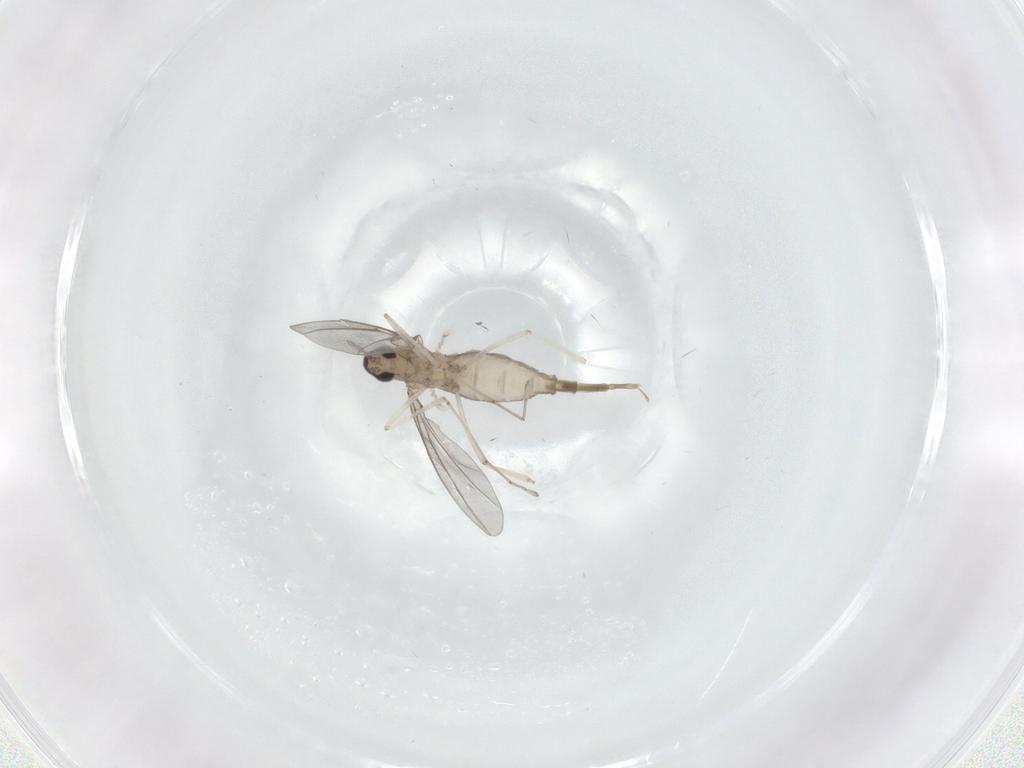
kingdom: Animalia
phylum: Arthropoda
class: Insecta
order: Diptera
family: Cecidomyiidae
